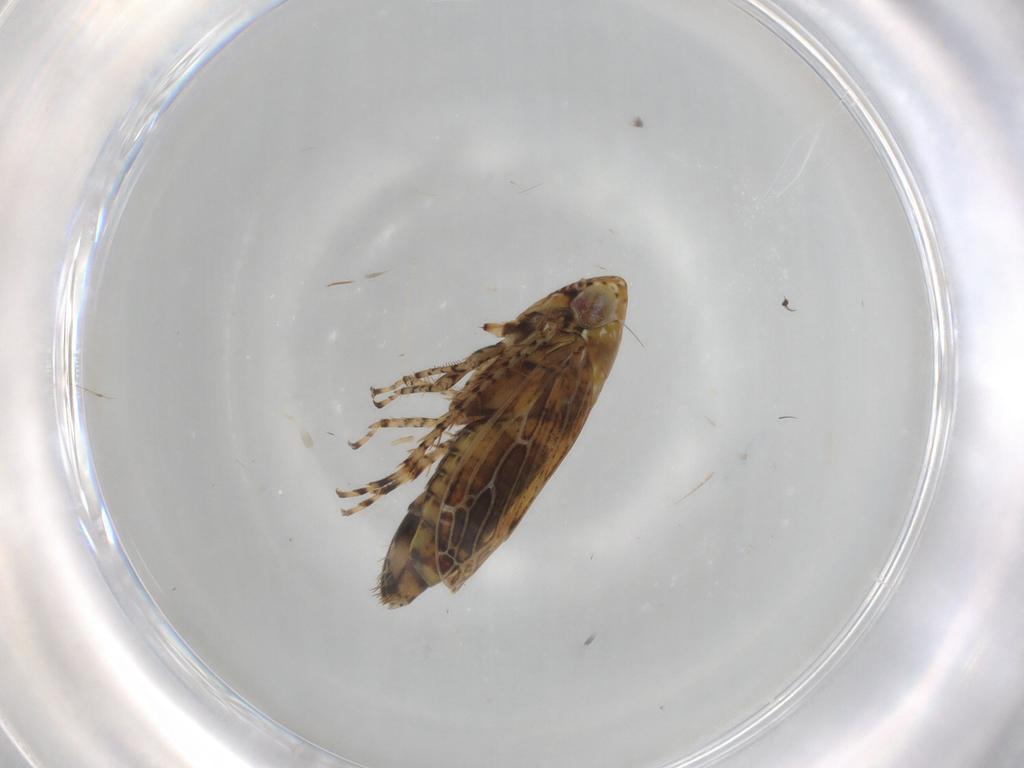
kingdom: Animalia
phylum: Arthropoda
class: Insecta
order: Hemiptera
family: Cicadellidae
